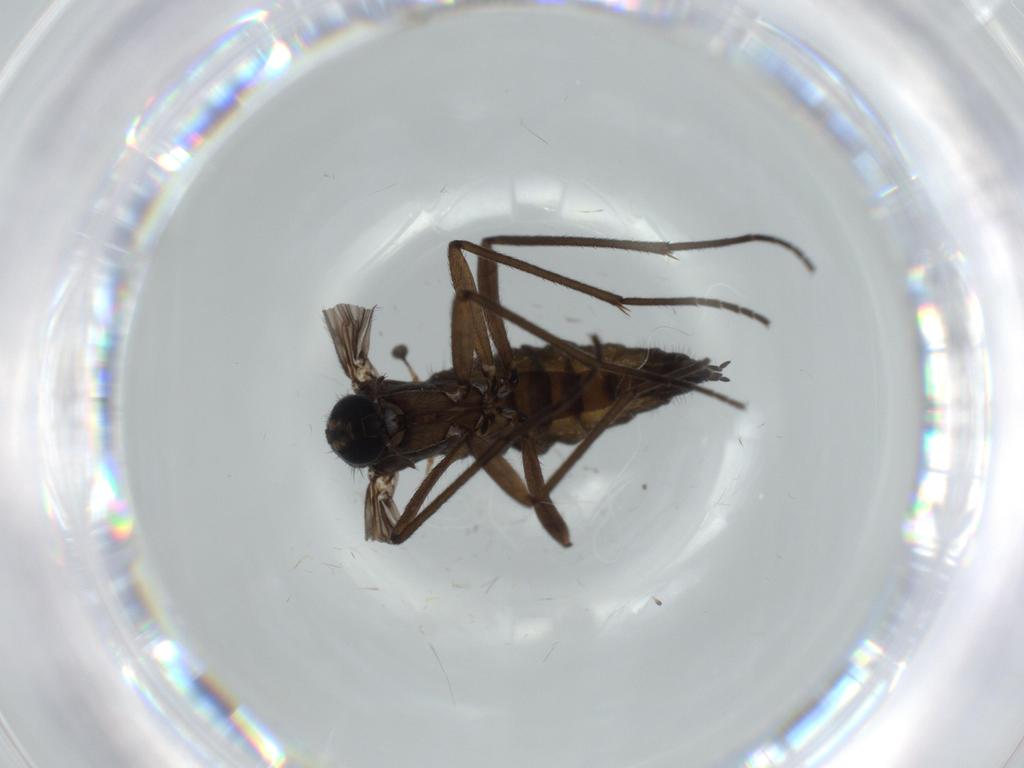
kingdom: Animalia
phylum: Arthropoda
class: Insecta
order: Diptera
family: Sciaridae
